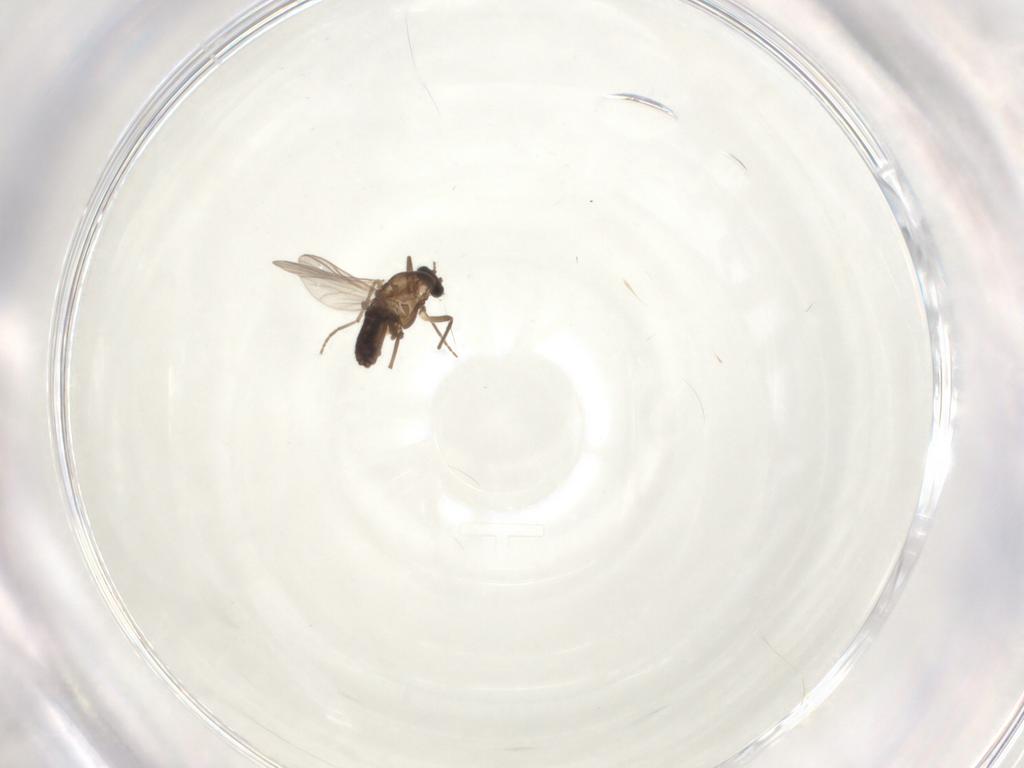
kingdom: Animalia
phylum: Arthropoda
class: Insecta
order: Diptera
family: Chironomidae
